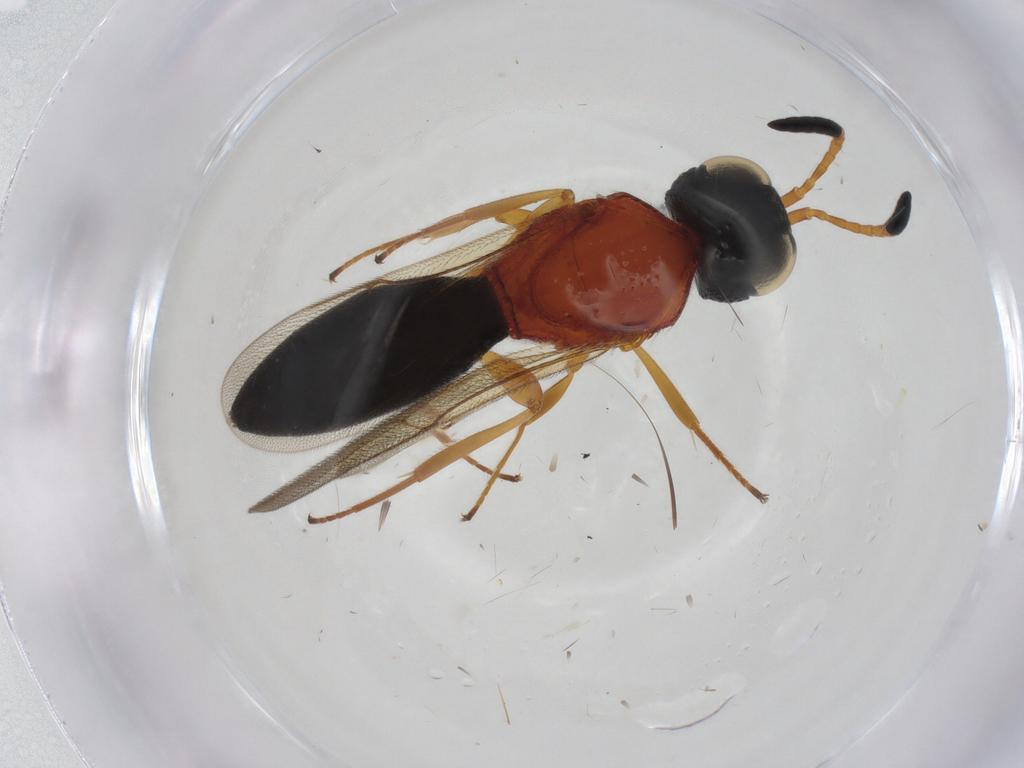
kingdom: Animalia
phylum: Arthropoda
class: Insecta
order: Hymenoptera
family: Scelionidae
